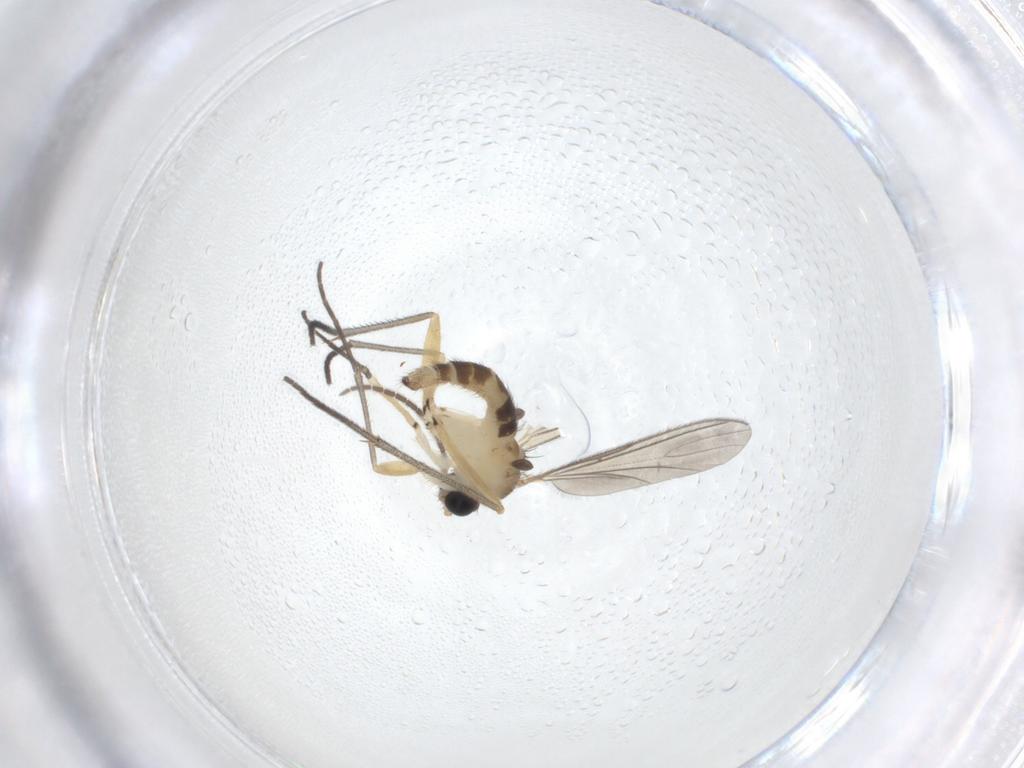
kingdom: Animalia
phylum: Arthropoda
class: Insecta
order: Diptera
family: Sciaridae
